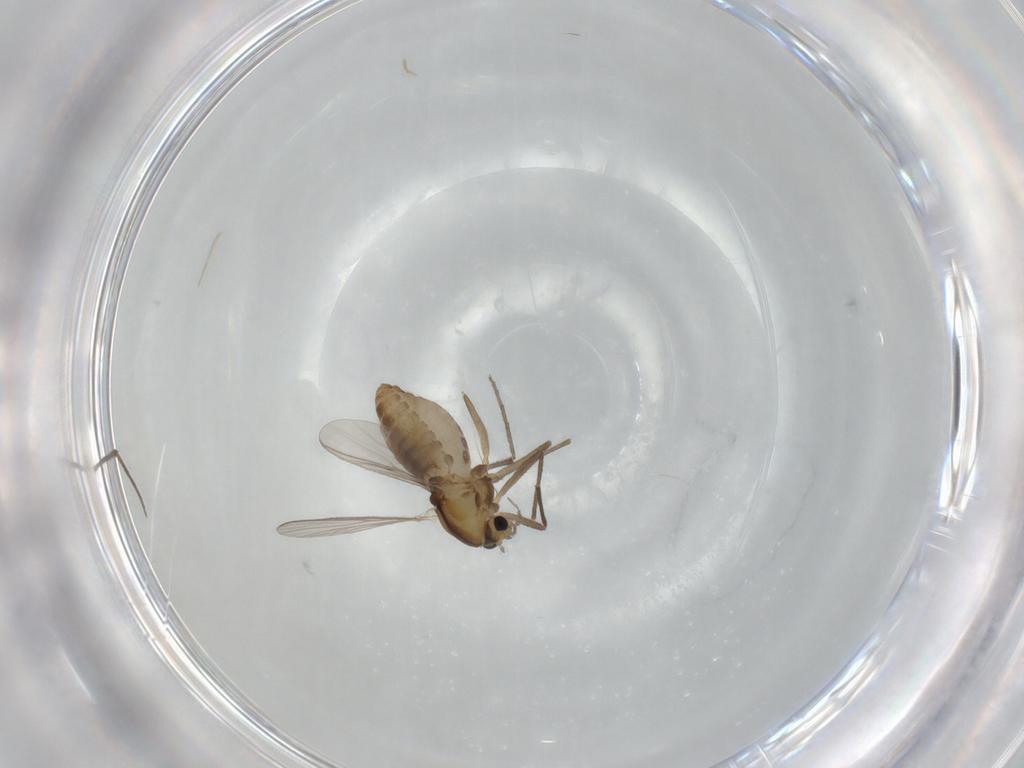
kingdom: Animalia
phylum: Arthropoda
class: Insecta
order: Diptera
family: Chironomidae
